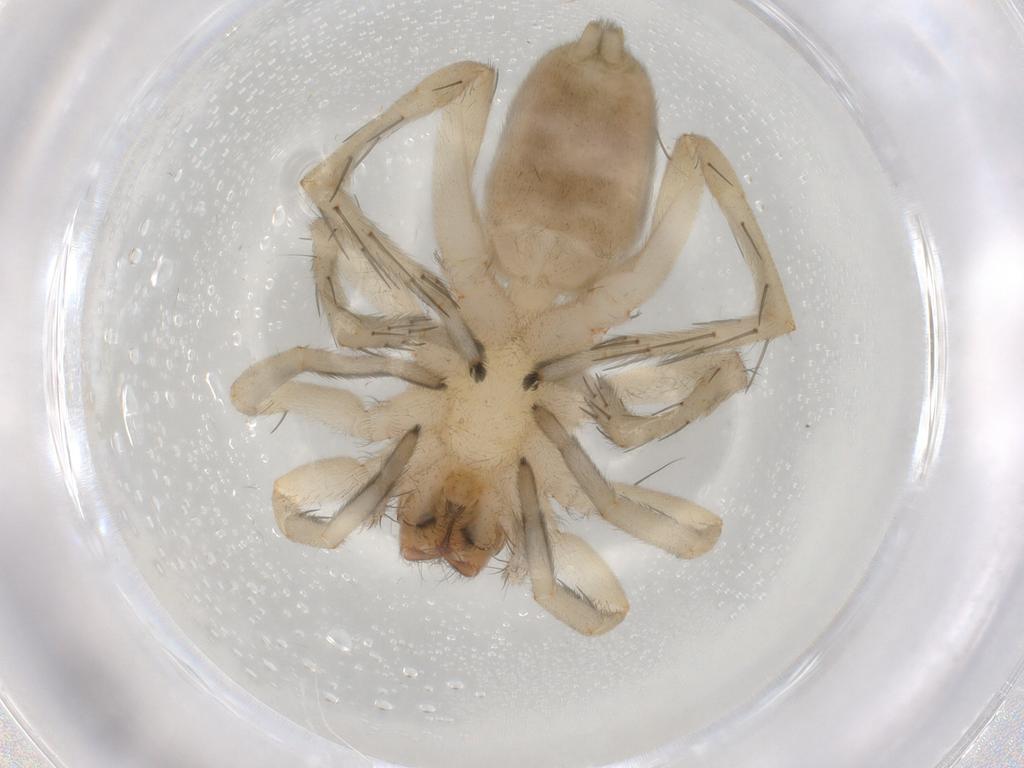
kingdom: Animalia
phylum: Arthropoda
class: Arachnida
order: Araneae
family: Clubionidae
